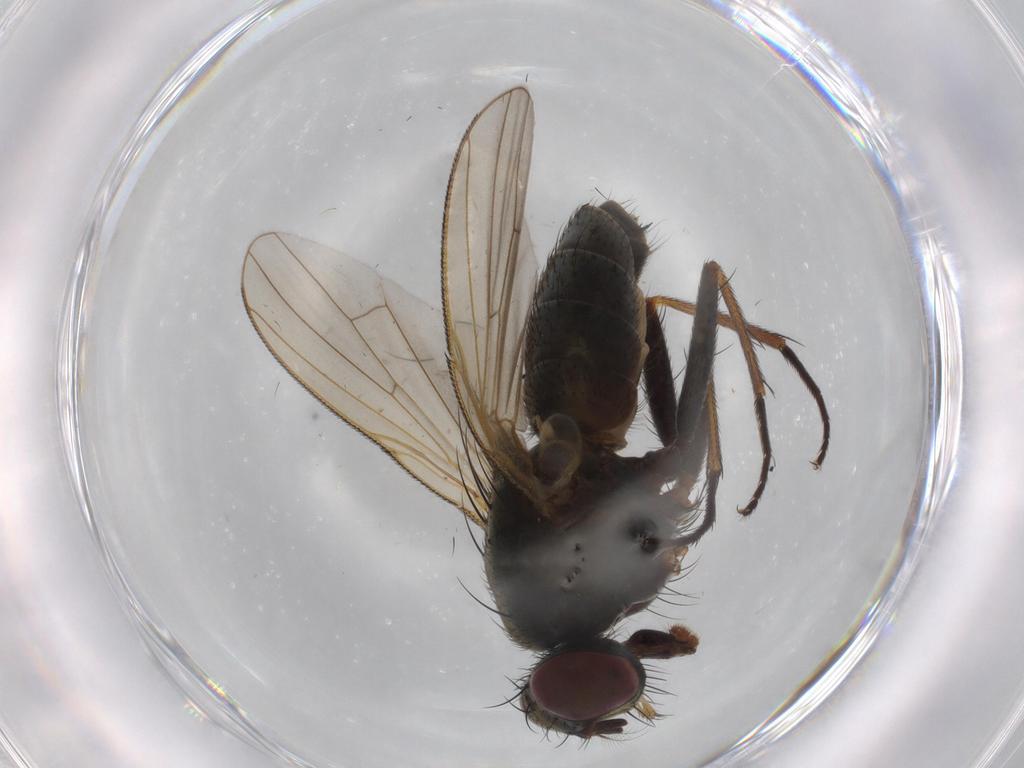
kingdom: Animalia
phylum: Arthropoda
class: Insecta
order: Diptera
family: Muscidae
